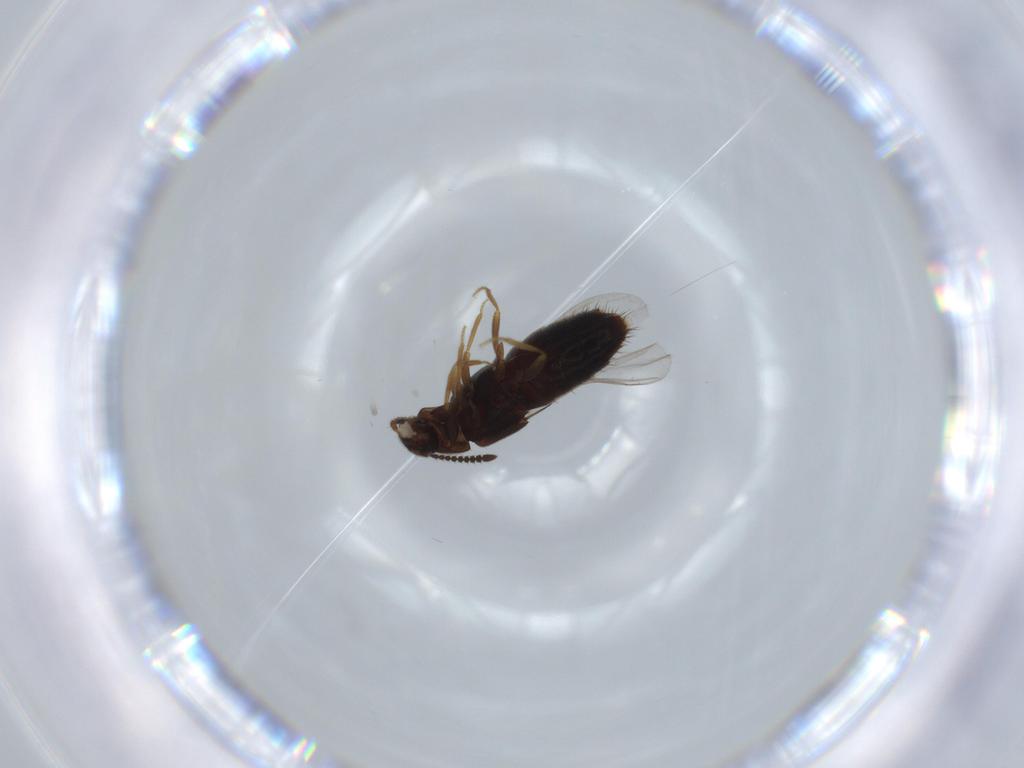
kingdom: Animalia
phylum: Arthropoda
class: Insecta
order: Coleoptera
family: Staphylinidae
